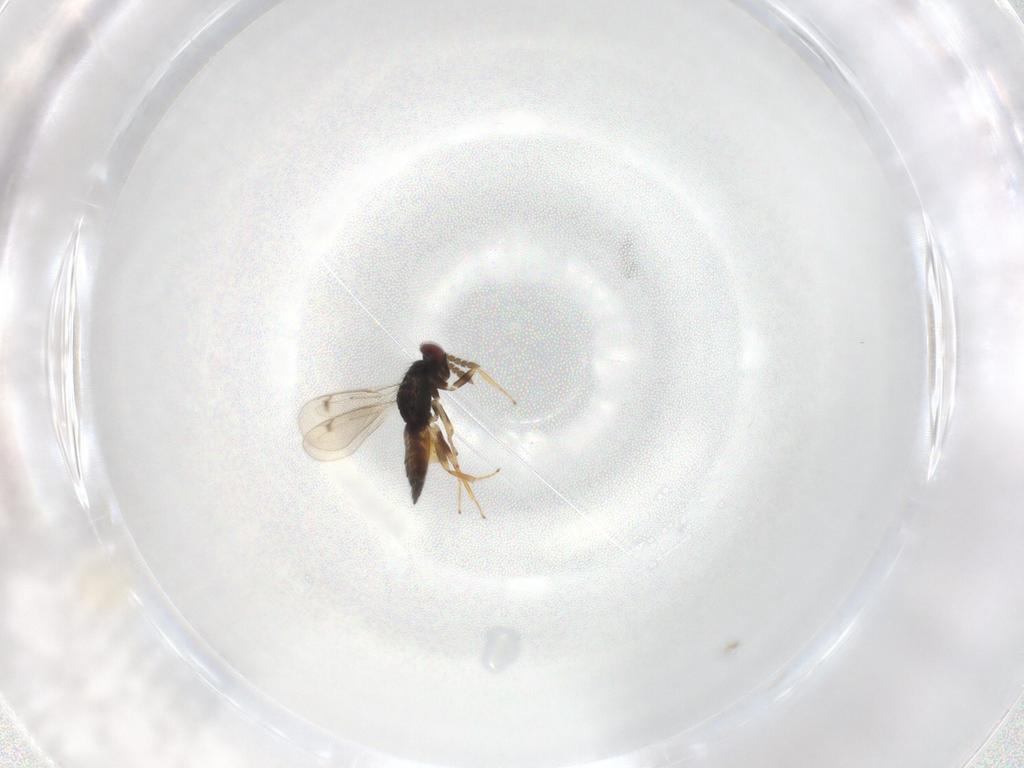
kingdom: Animalia
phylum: Arthropoda
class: Insecta
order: Hymenoptera
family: Eulophidae
